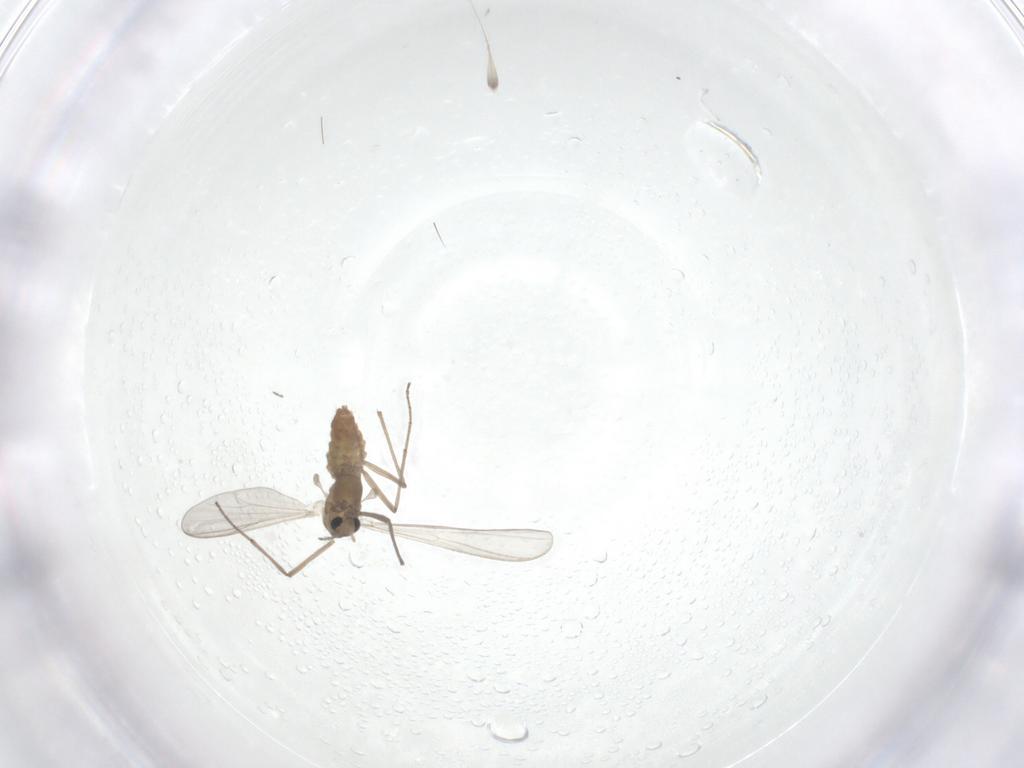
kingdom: Animalia
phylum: Arthropoda
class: Insecta
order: Diptera
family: Chironomidae
